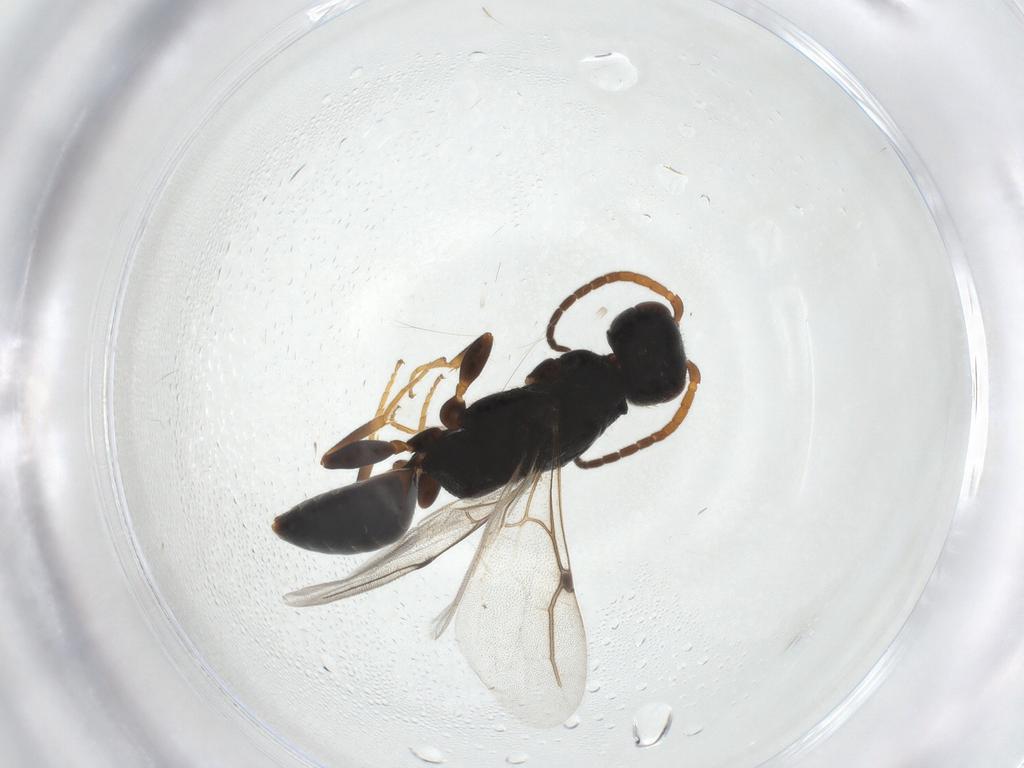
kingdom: Animalia
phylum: Arthropoda
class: Insecta
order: Hymenoptera
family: Bethylidae
